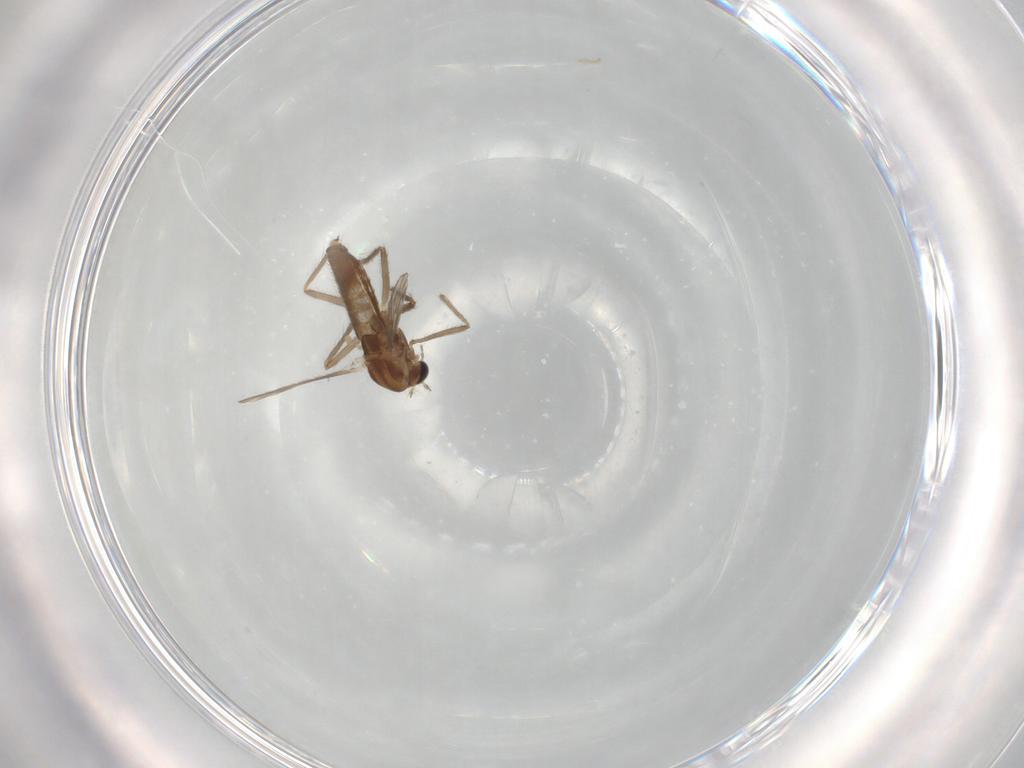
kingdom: Animalia
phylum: Arthropoda
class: Insecta
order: Diptera
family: Chironomidae
